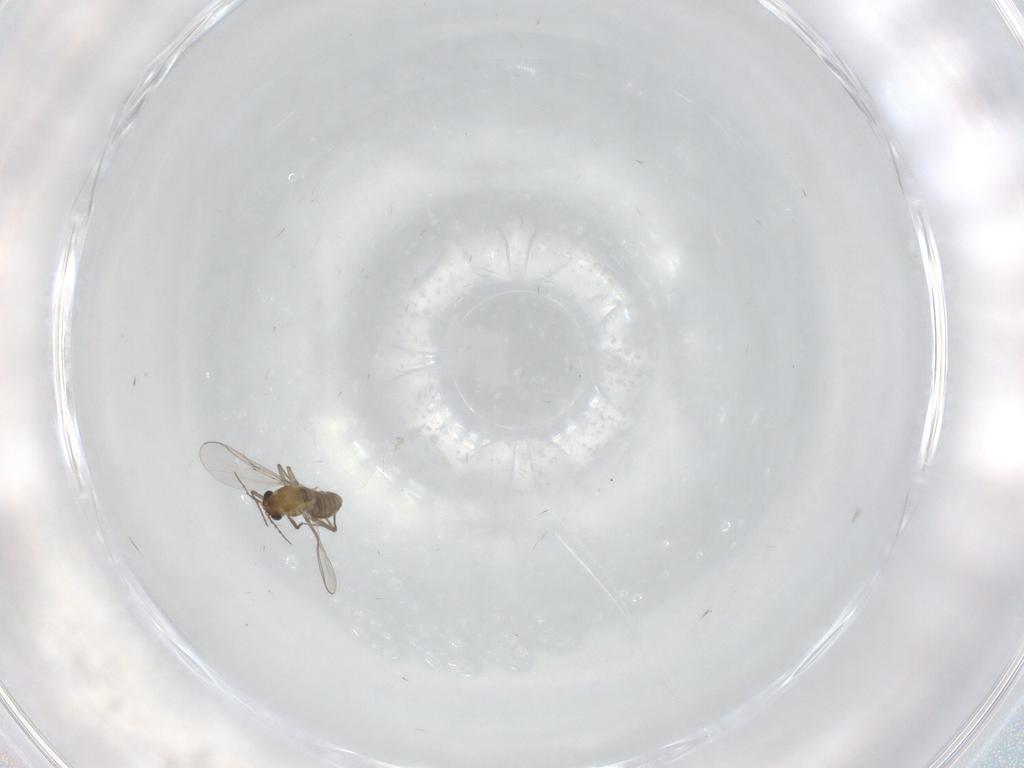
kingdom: Animalia
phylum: Arthropoda
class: Insecta
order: Diptera
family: Chironomidae
